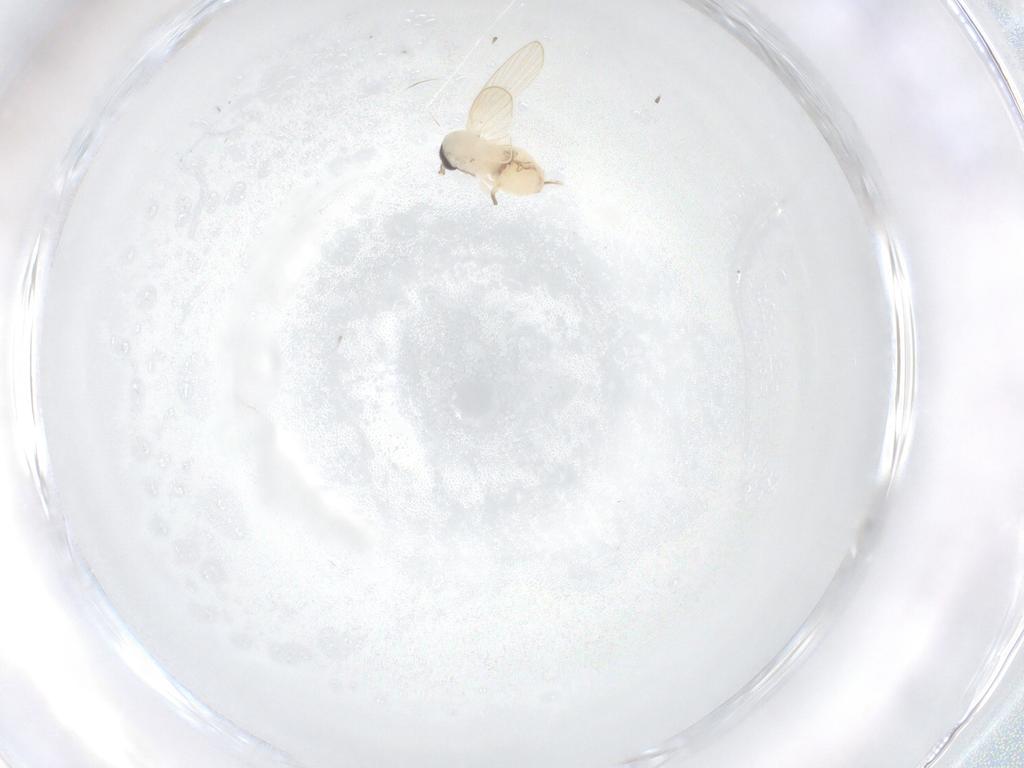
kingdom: Animalia
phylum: Arthropoda
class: Insecta
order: Diptera
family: Psychodidae
